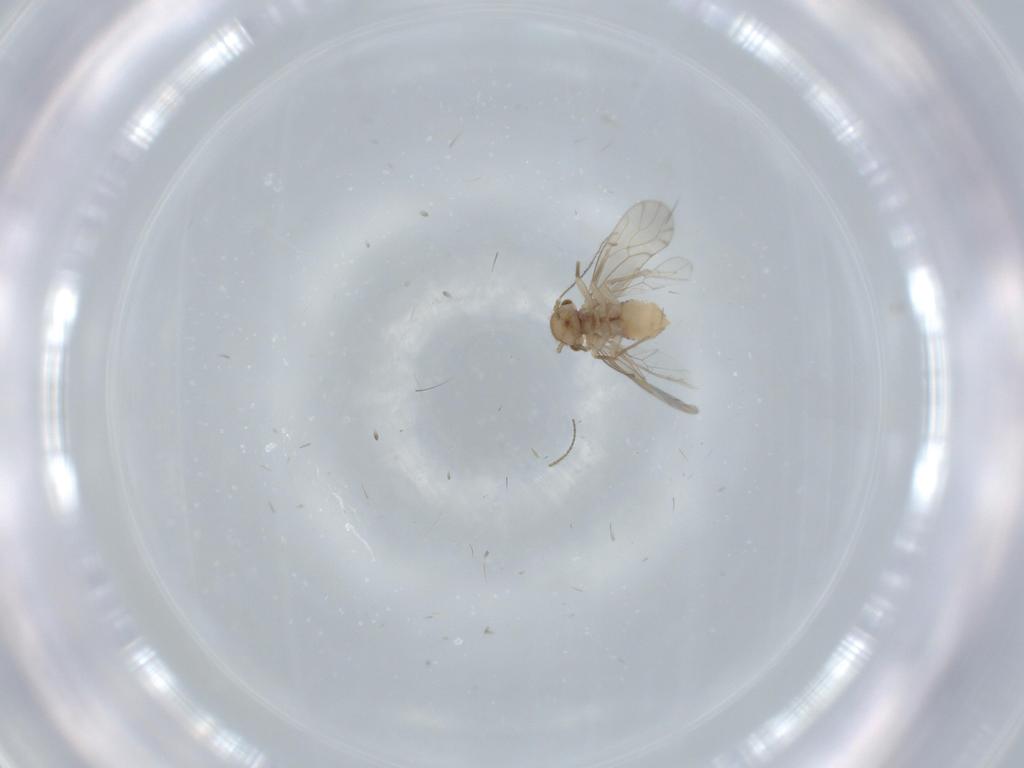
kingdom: Animalia
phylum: Arthropoda
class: Insecta
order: Psocodea
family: Ectopsocidae
